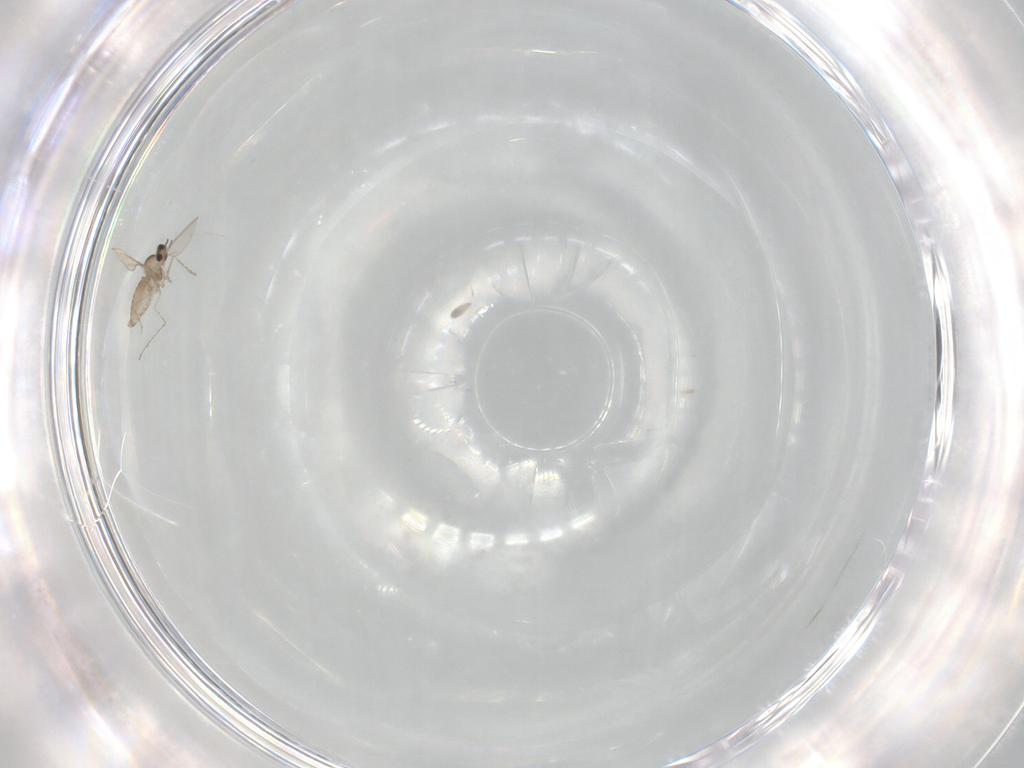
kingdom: Animalia
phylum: Arthropoda
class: Insecta
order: Diptera
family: Cecidomyiidae
